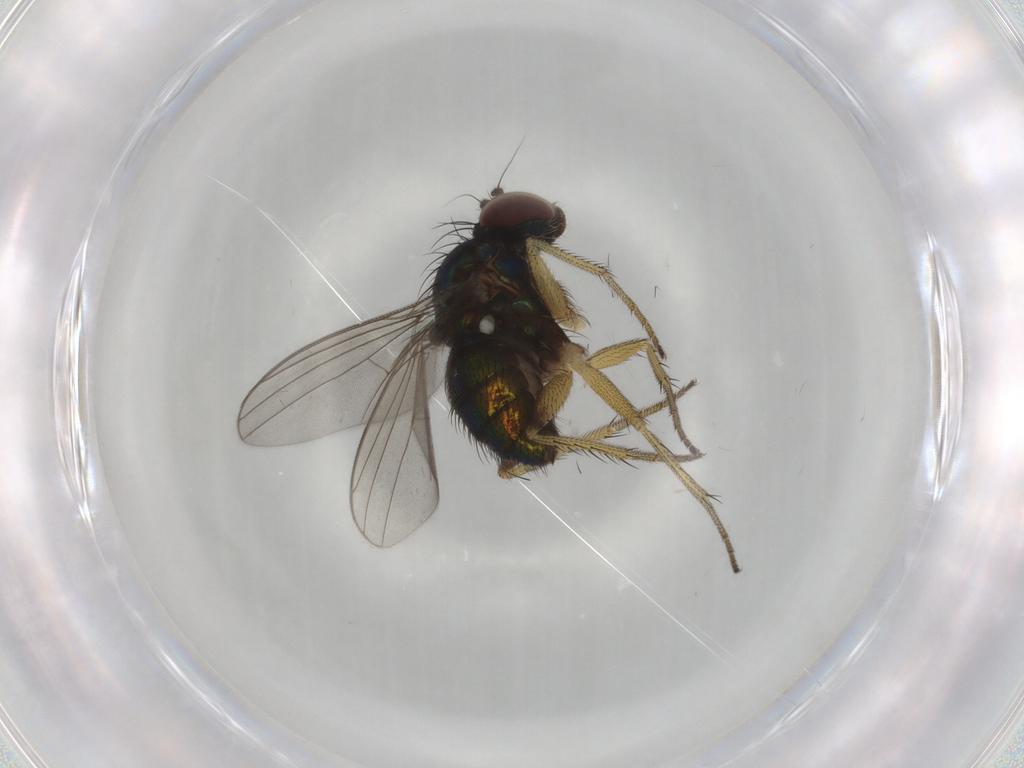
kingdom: Animalia
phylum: Arthropoda
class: Insecta
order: Diptera
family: Dolichopodidae
